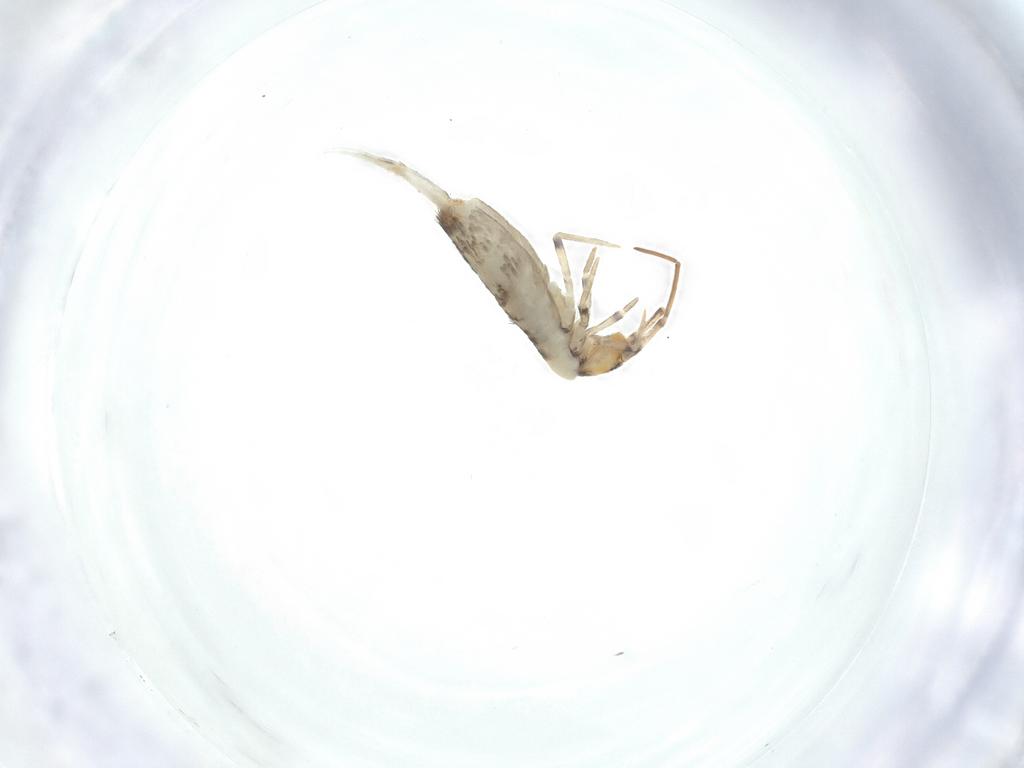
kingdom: Animalia
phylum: Arthropoda
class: Collembola
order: Entomobryomorpha
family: Entomobryidae
